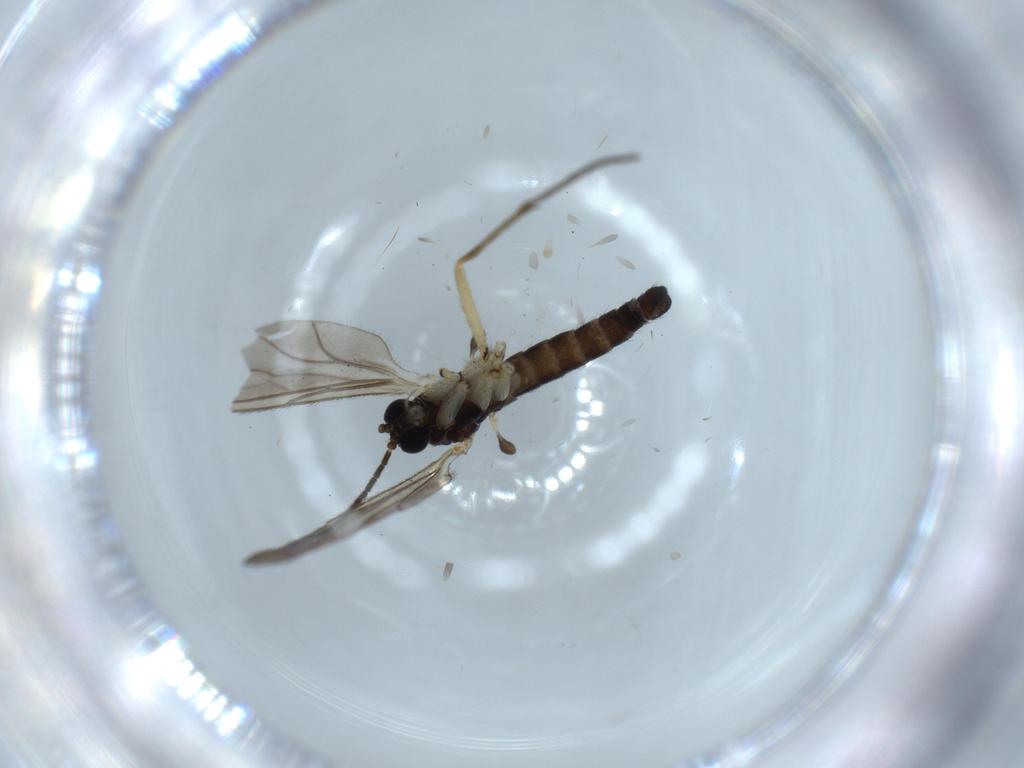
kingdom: Animalia
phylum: Arthropoda
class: Insecta
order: Diptera
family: Sciaridae
